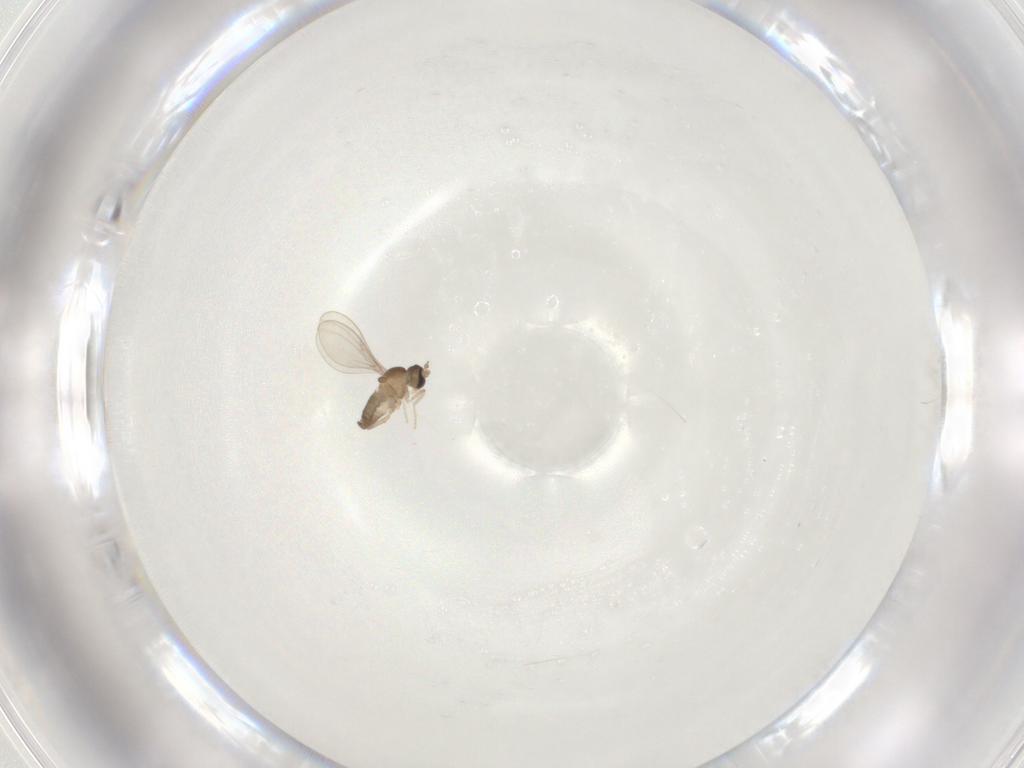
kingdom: Animalia
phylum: Arthropoda
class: Insecta
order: Diptera
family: Cecidomyiidae
